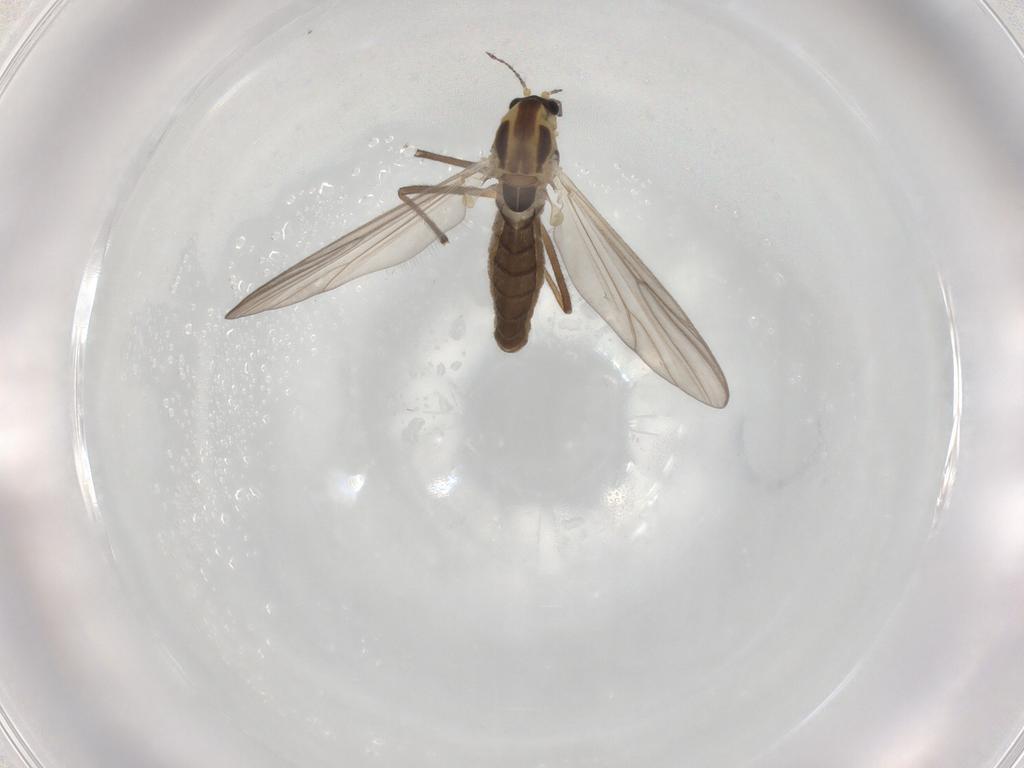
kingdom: Animalia
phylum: Arthropoda
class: Insecta
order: Diptera
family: Chironomidae
